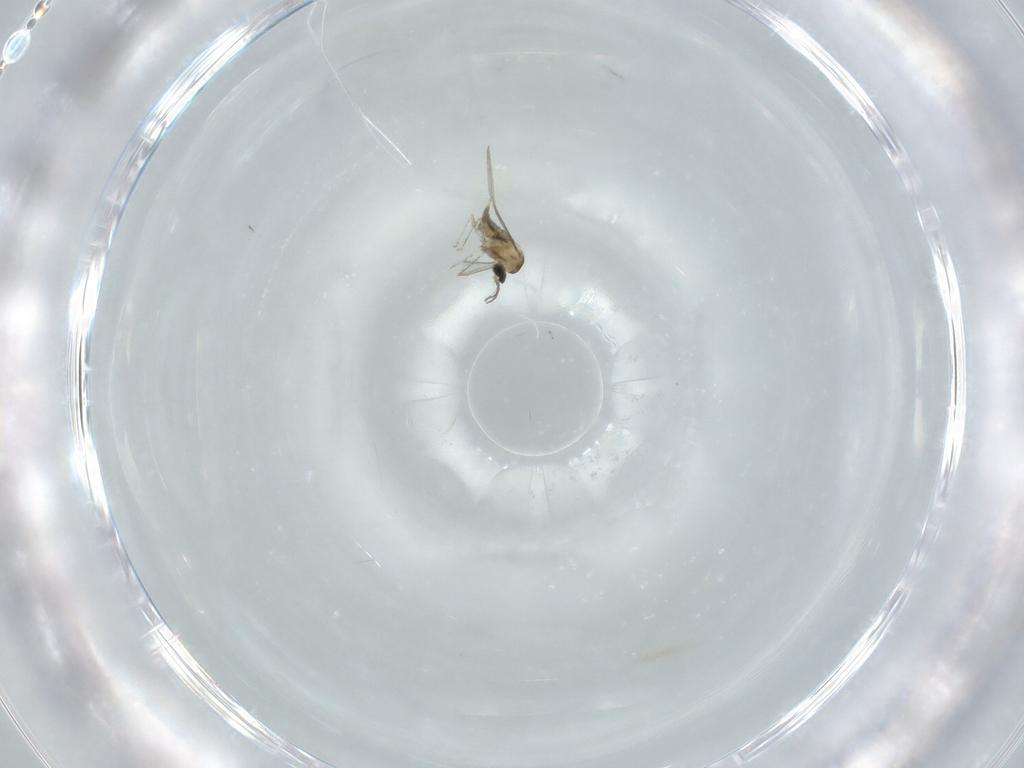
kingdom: Animalia
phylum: Arthropoda
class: Insecta
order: Diptera
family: Cecidomyiidae
